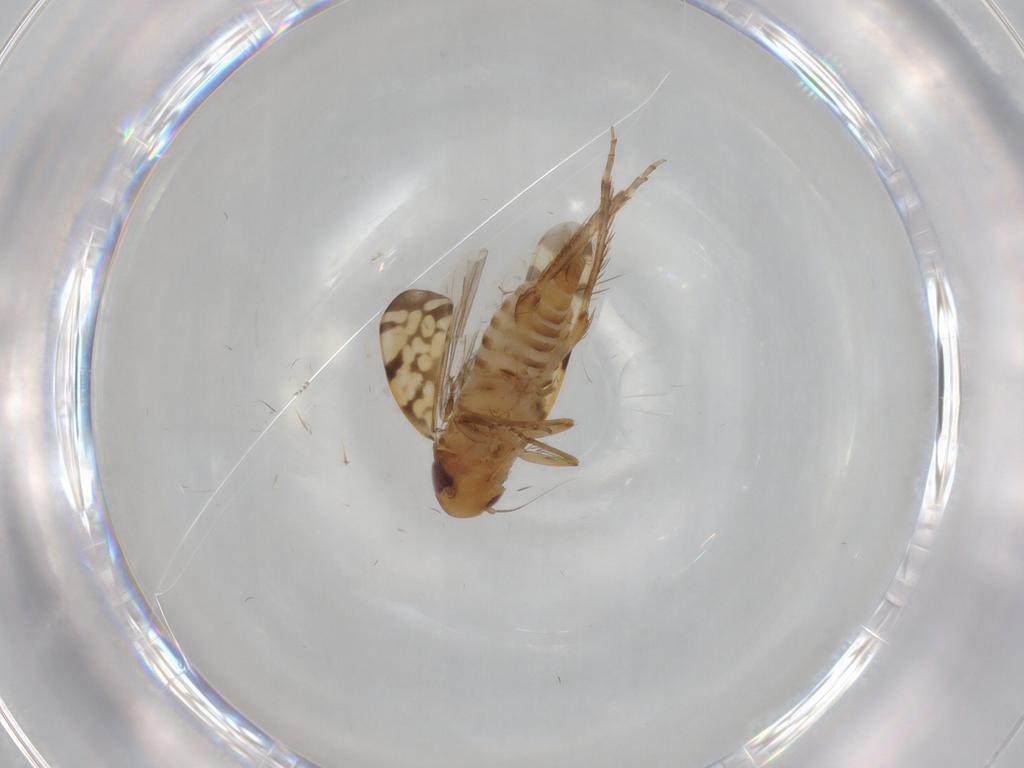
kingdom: Animalia
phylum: Arthropoda
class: Insecta
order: Hemiptera
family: Cicadellidae
